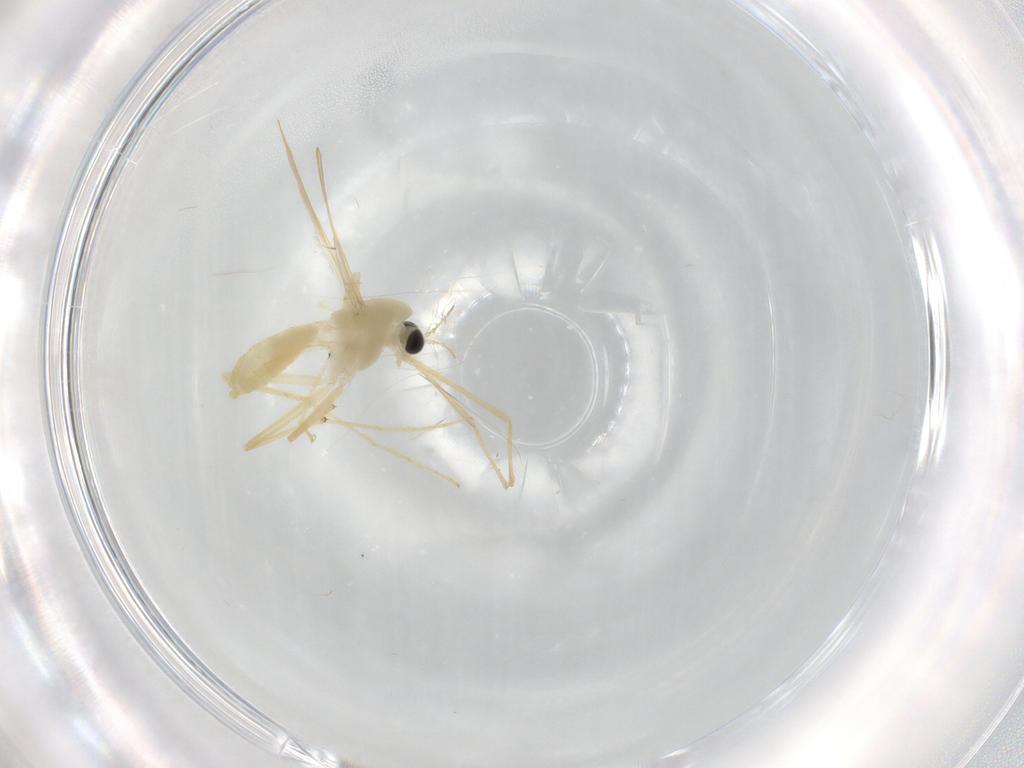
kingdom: Animalia
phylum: Arthropoda
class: Insecta
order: Diptera
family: Chironomidae
